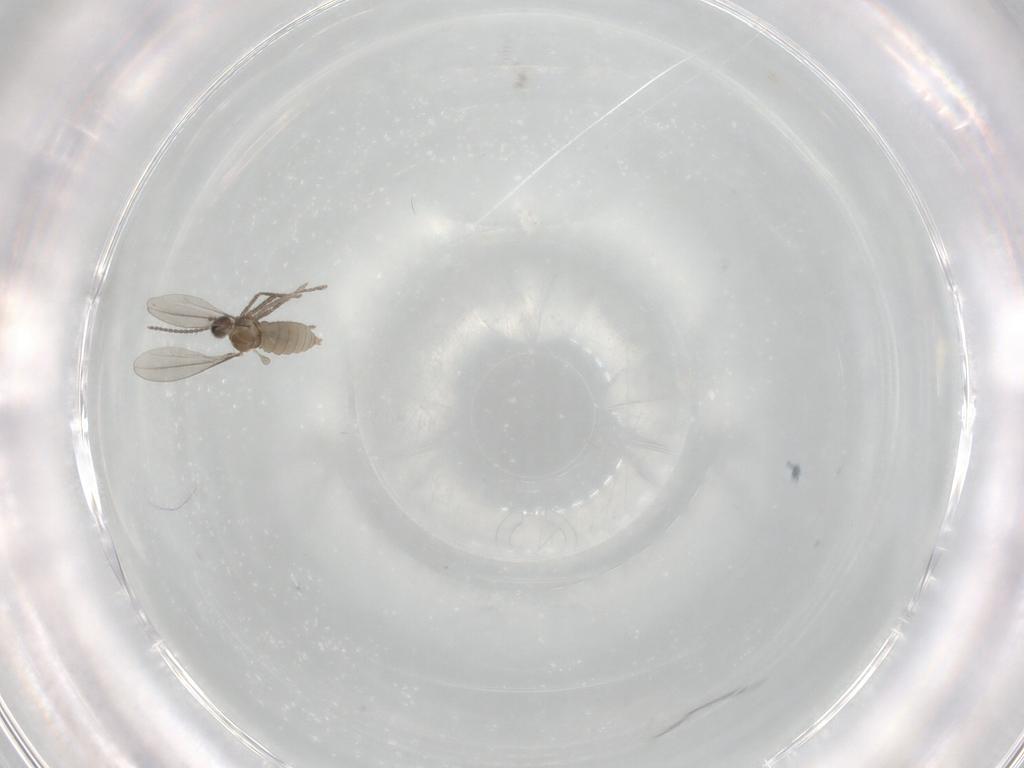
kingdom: Animalia
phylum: Arthropoda
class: Insecta
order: Diptera
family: Cecidomyiidae
